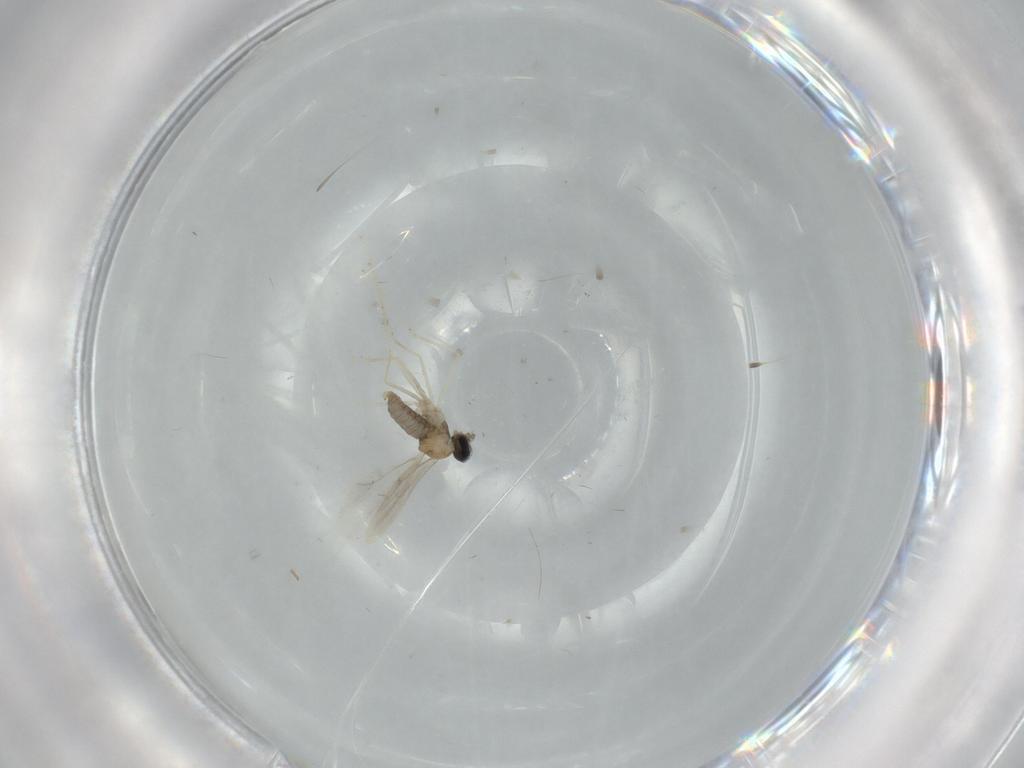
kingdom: Animalia
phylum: Arthropoda
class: Insecta
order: Diptera
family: Cecidomyiidae
